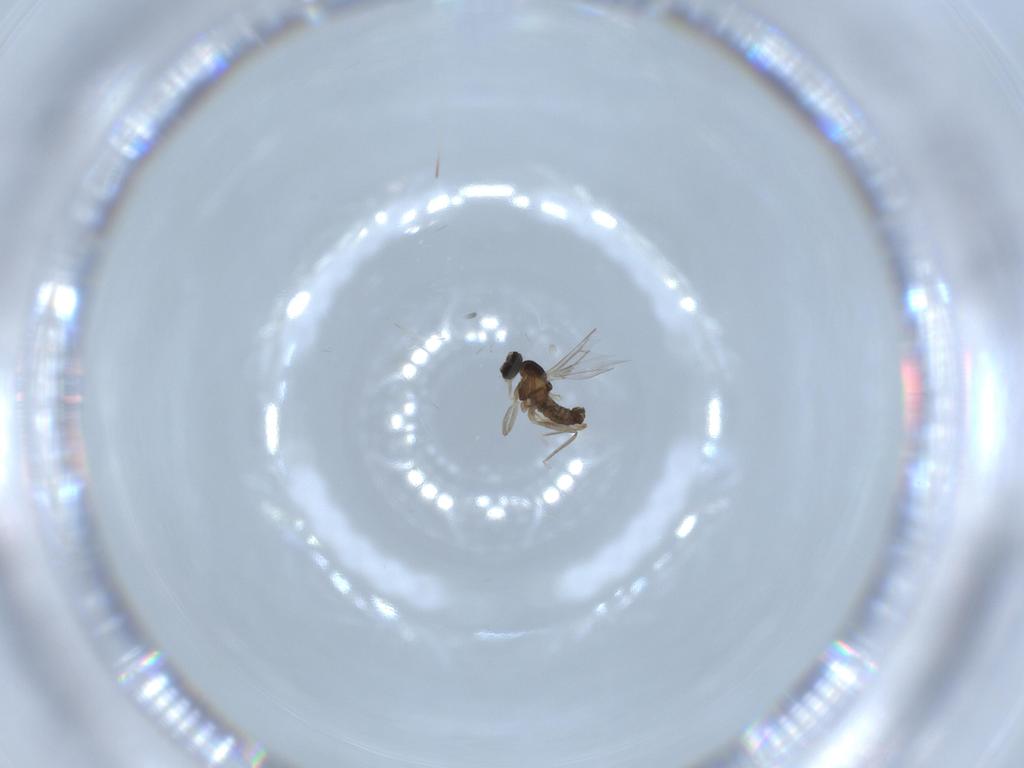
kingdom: Animalia
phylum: Arthropoda
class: Insecta
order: Diptera
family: Cecidomyiidae
